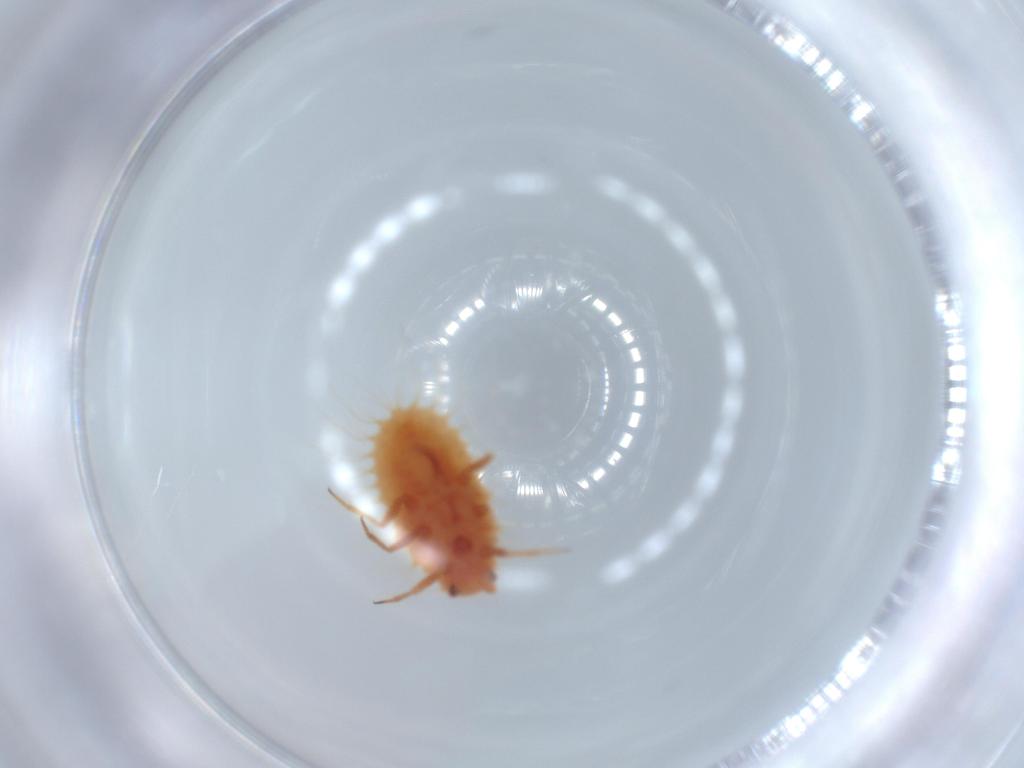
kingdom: Animalia
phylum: Arthropoda
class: Insecta
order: Hemiptera
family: Coccoidea_incertae_sedis
